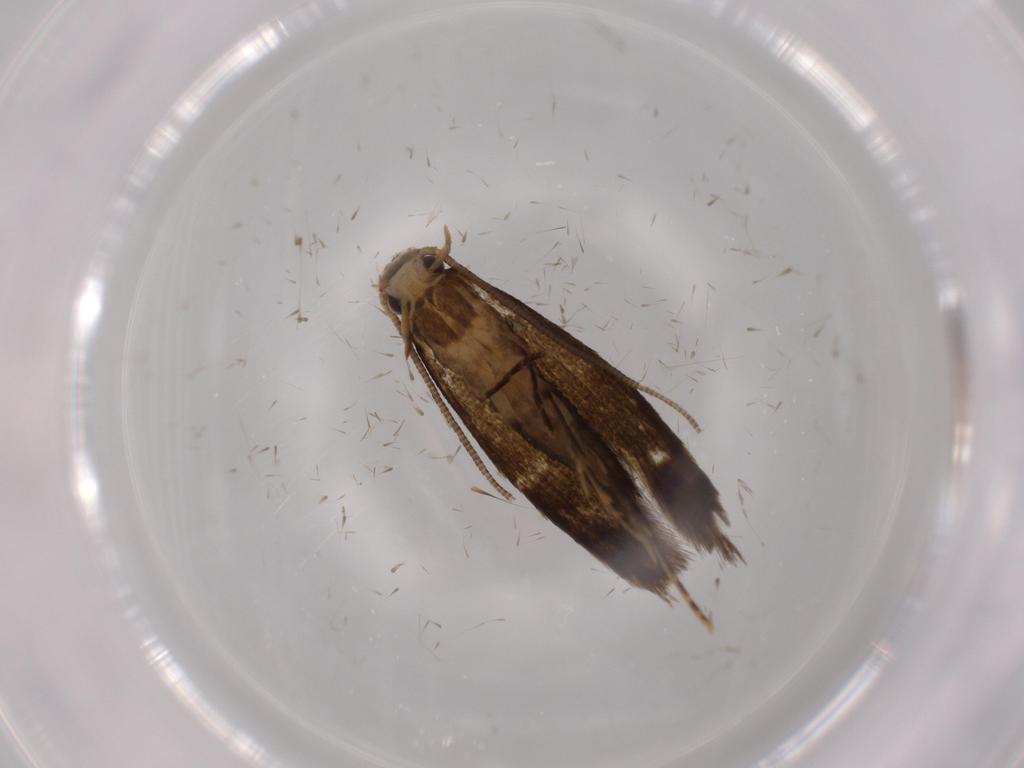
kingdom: Animalia
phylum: Arthropoda
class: Insecta
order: Lepidoptera
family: Tineidae
